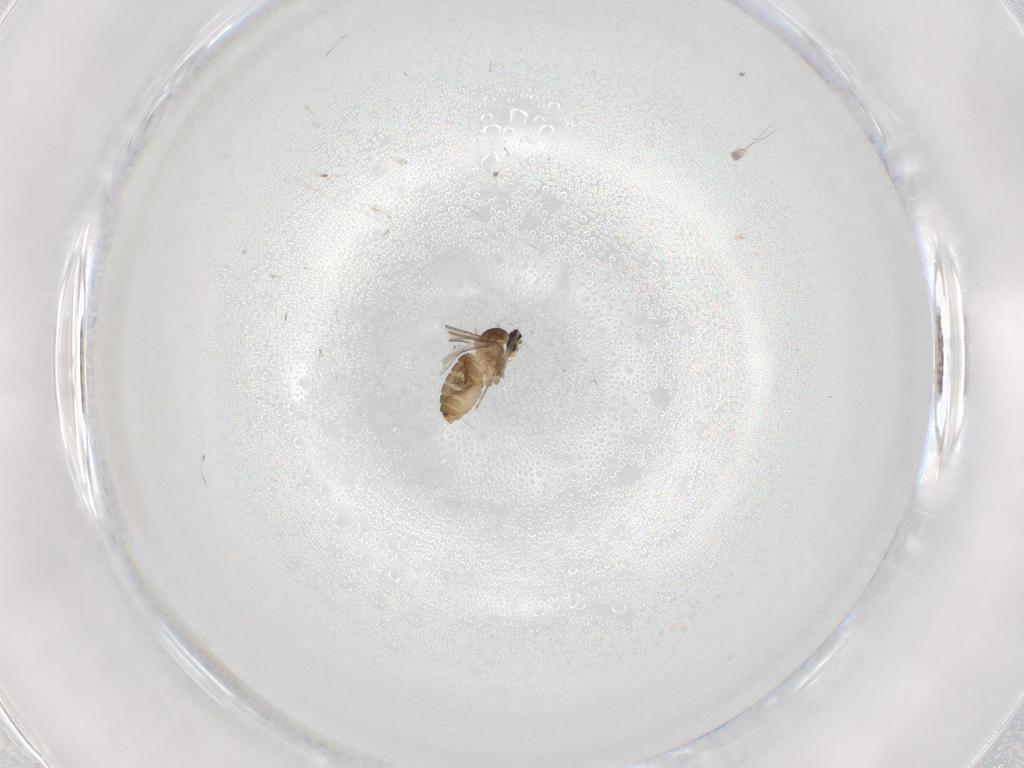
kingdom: Animalia
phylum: Arthropoda
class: Insecta
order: Diptera
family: Cecidomyiidae
